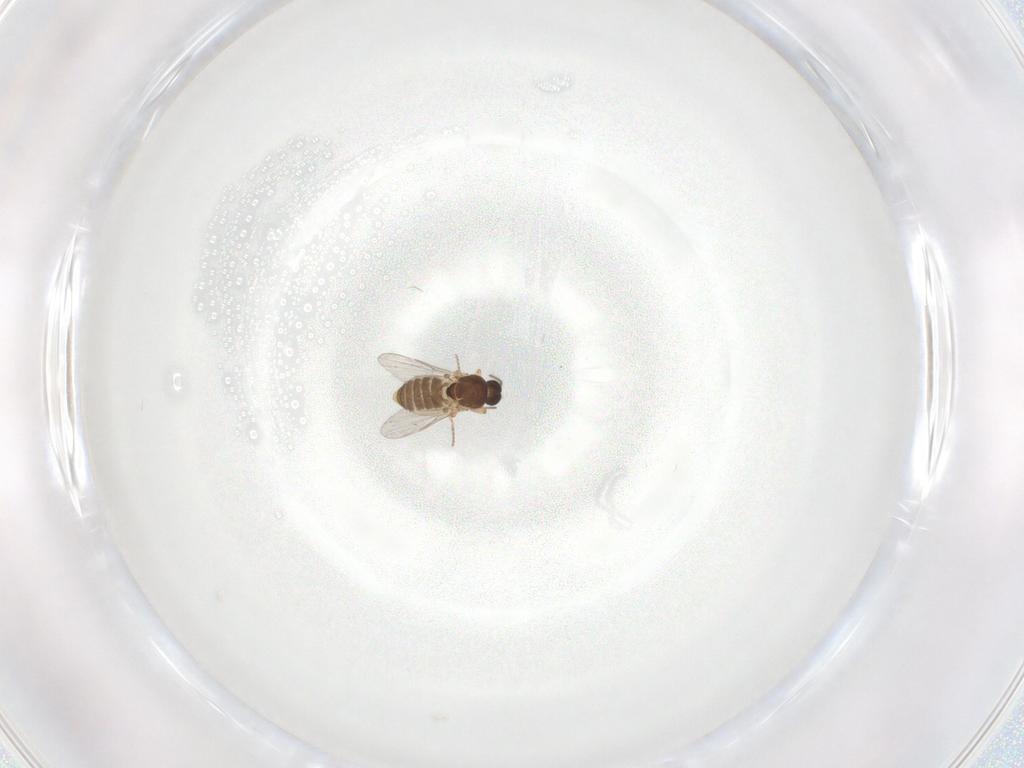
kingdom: Animalia
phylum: Arthropoda
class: Insecta
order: Diptera
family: Ceratopogonidae
